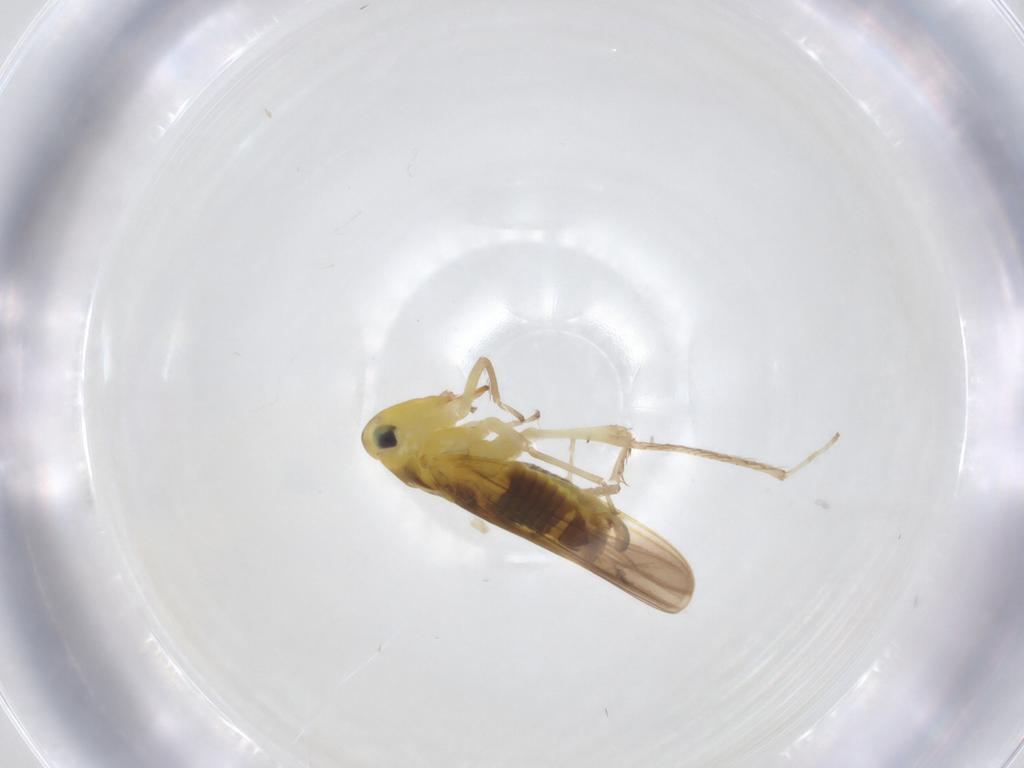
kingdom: Animalia
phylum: Arthropoda
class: Insecta
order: Hemiptera
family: Cicadellidae
